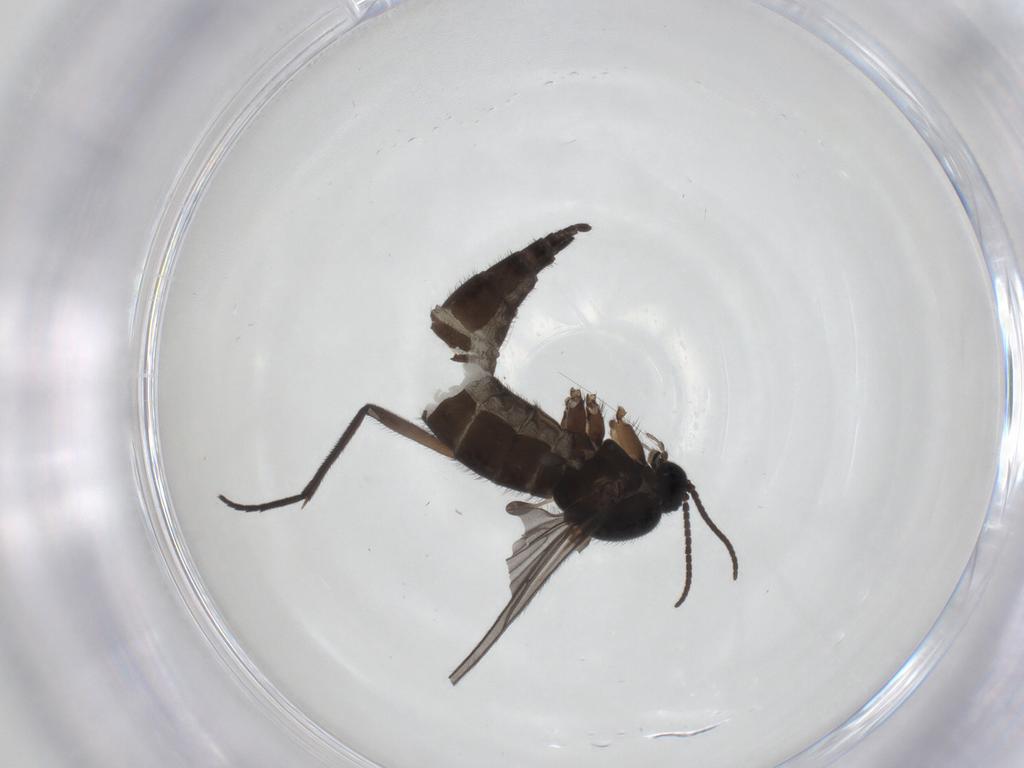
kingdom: Animalia
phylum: Arthropoda
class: Insecta
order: Diptera
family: Sciaridae
